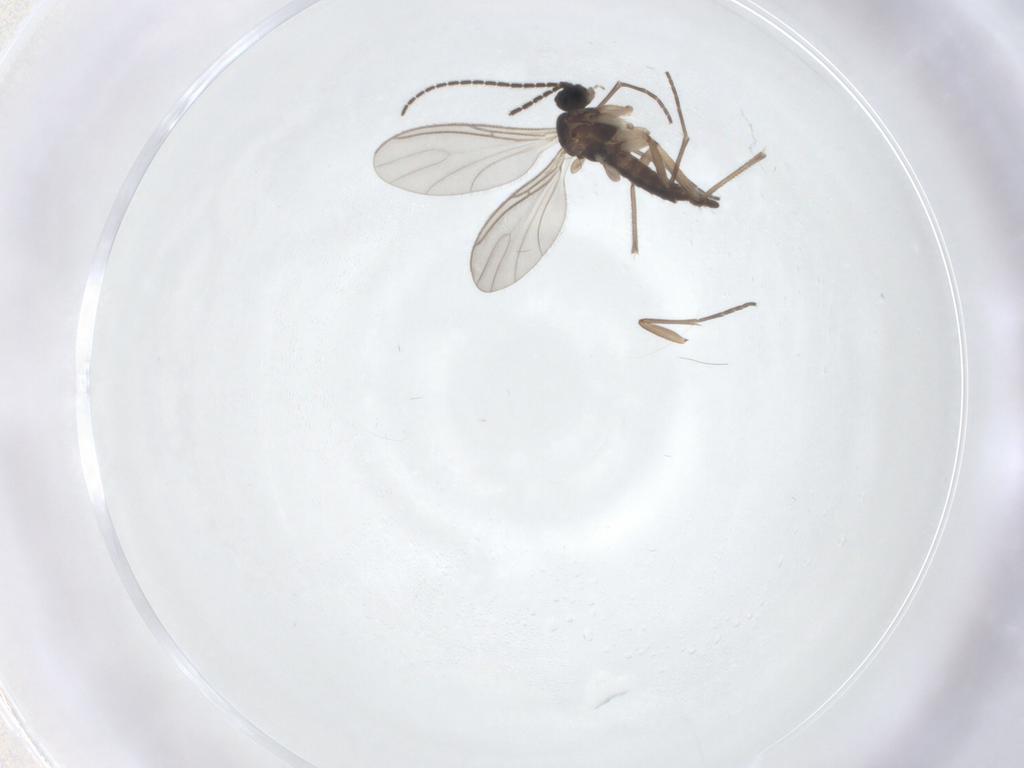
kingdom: Animalia
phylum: Arthropoda
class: Insecta
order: Diptera
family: Sciaridae
